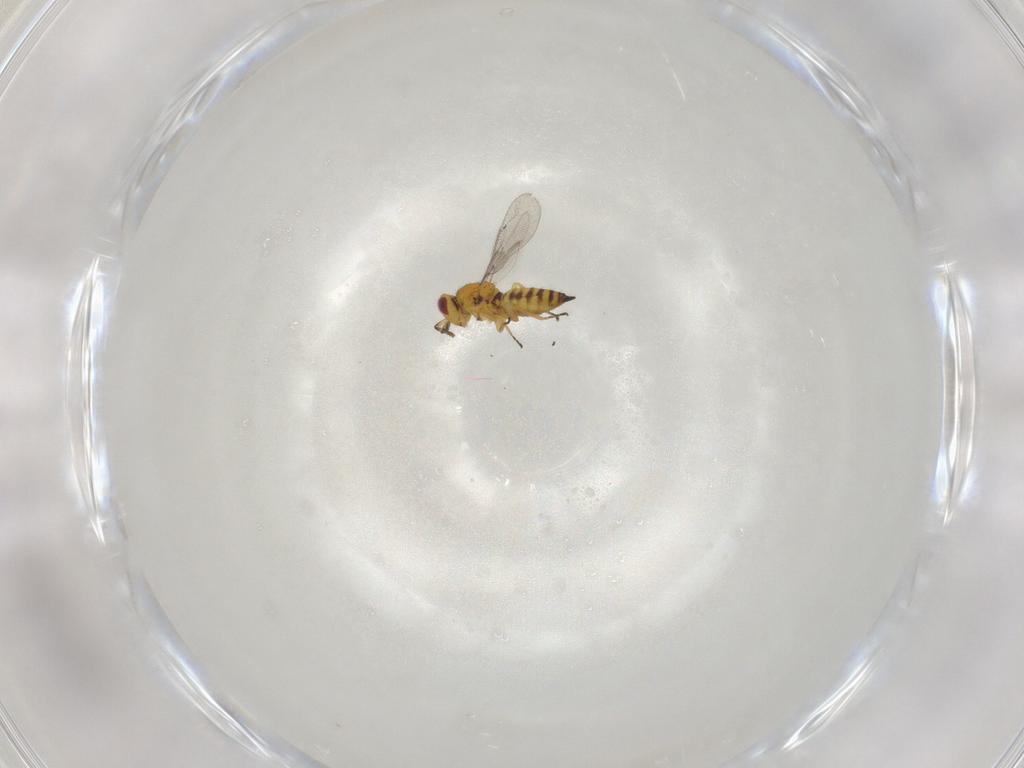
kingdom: Animalia
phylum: Arthropoda
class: Insecta
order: Hymenoptera
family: Eulophidae
